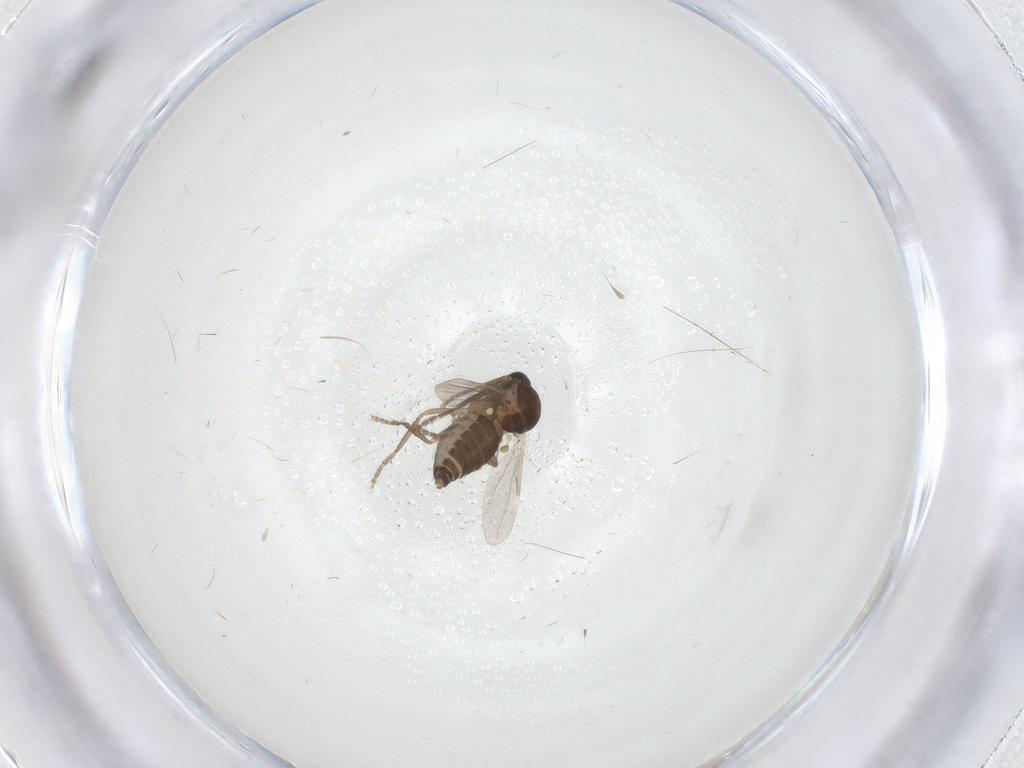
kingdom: Animalia
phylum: Arthropoda
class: Insecta
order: Diptera
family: Ceratopogonidae
